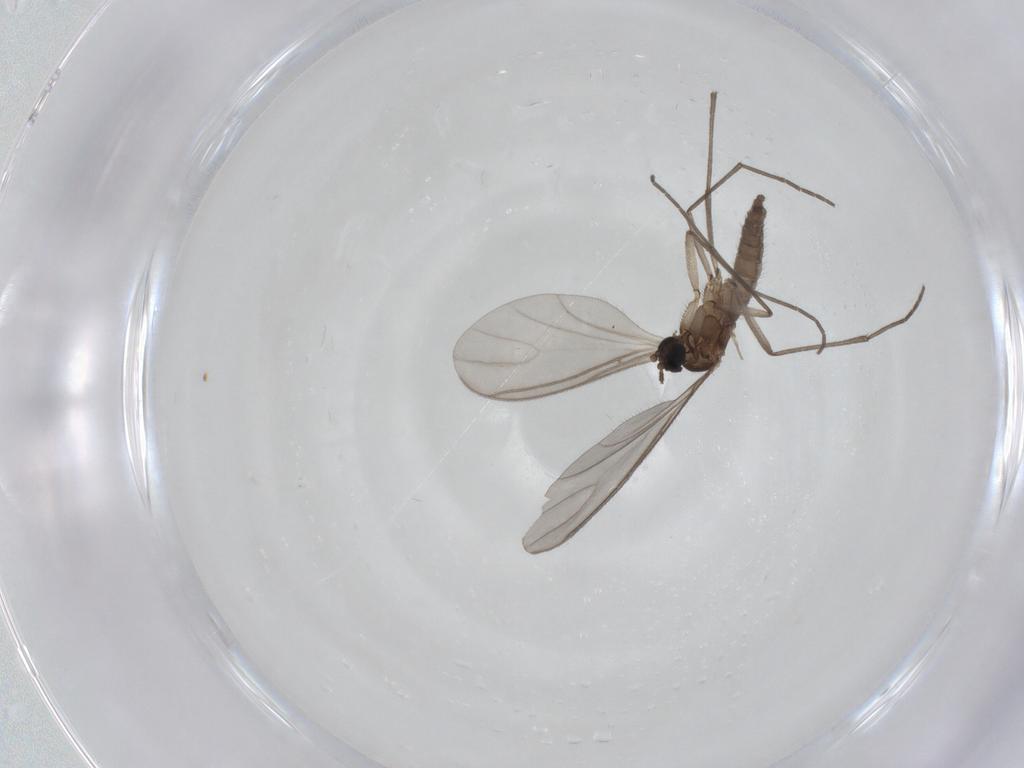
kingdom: Animalia
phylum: Arthropoda
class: Insecta
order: Diptera
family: Sciaridae
